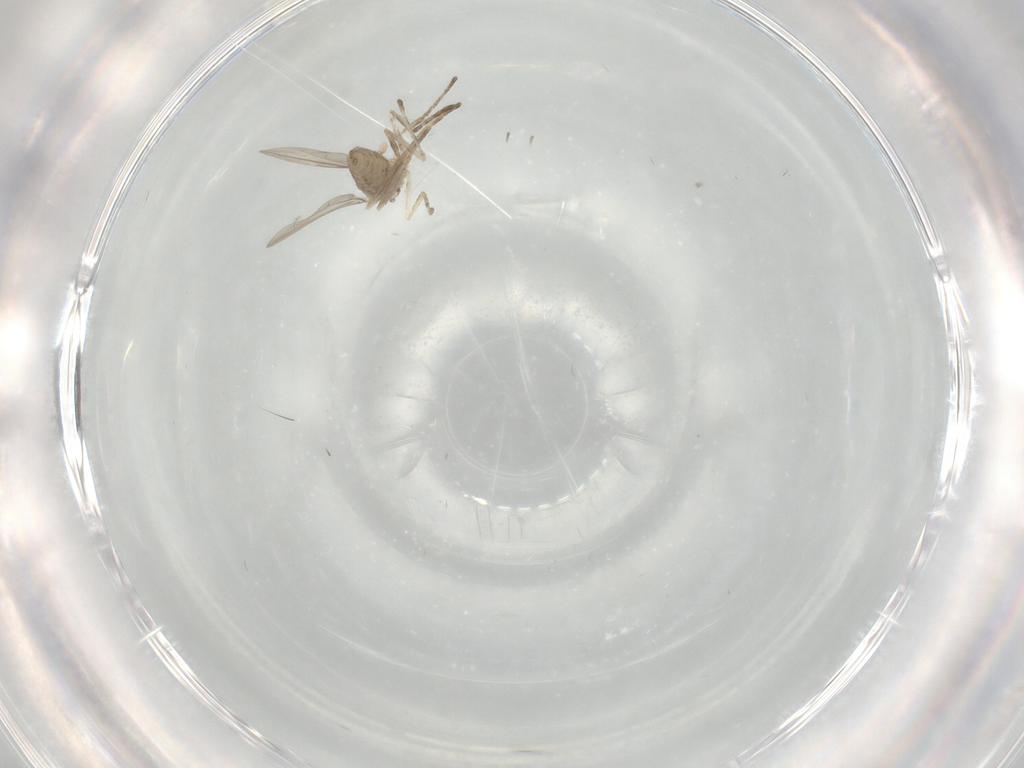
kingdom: Animalia
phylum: Arthropoda
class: Insecta
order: Diptera
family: Cecidomyiidae
